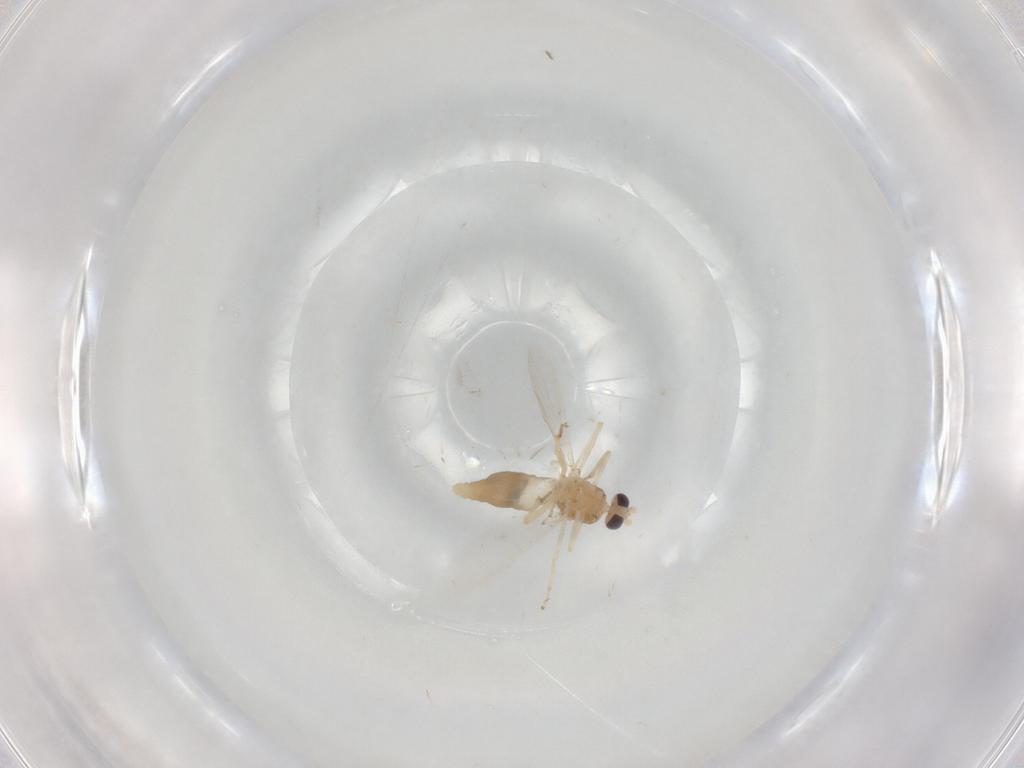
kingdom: Animalia
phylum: Arthropoda
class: Insecta
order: Diptera
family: Ceratopogonidae
